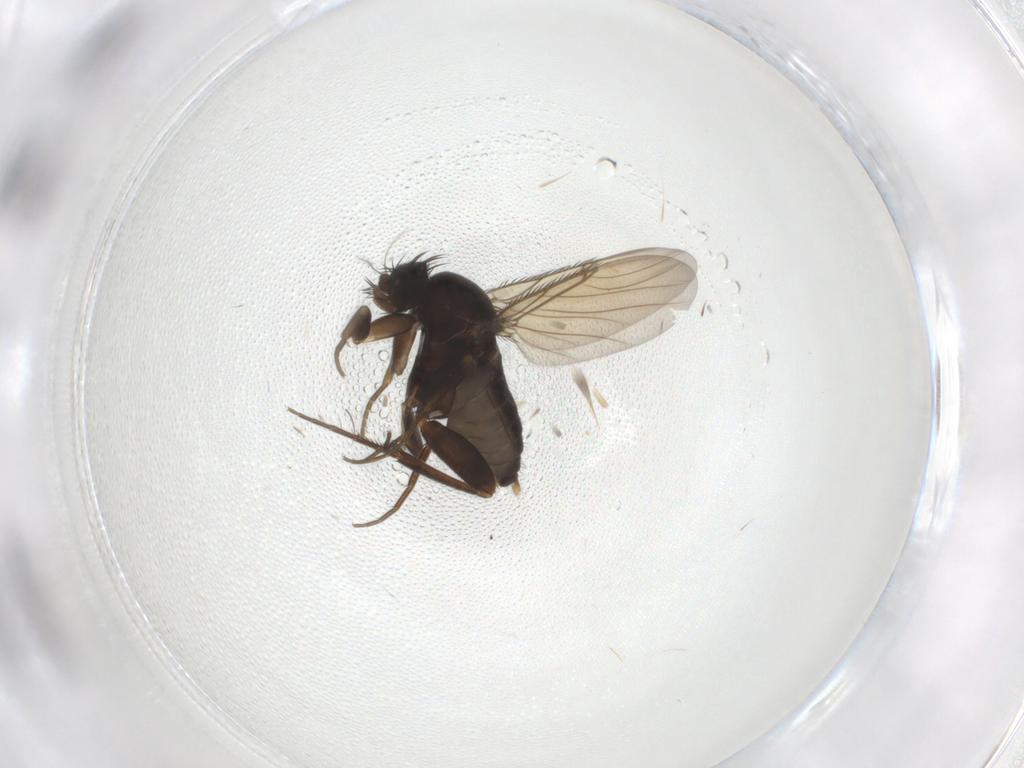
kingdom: Animalia
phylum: Arthropoda
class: Insecta
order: Diptera
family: Phoridae
